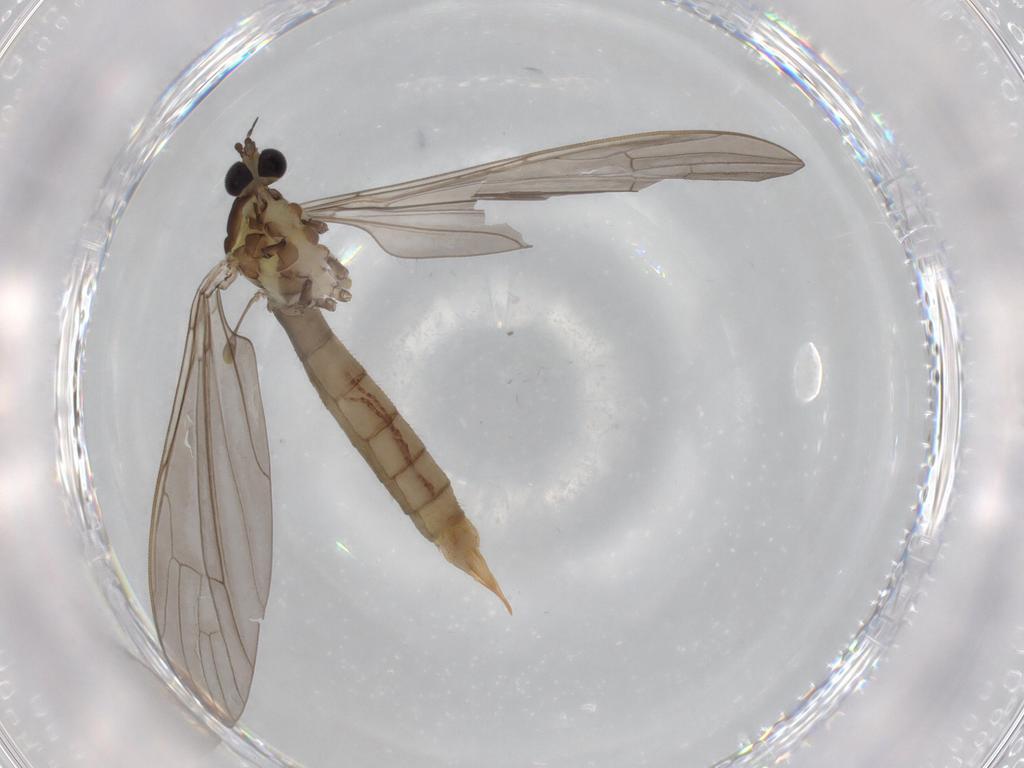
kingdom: Animalia
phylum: Arthropoda
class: Insecta
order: Diptera
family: Limoniidae
